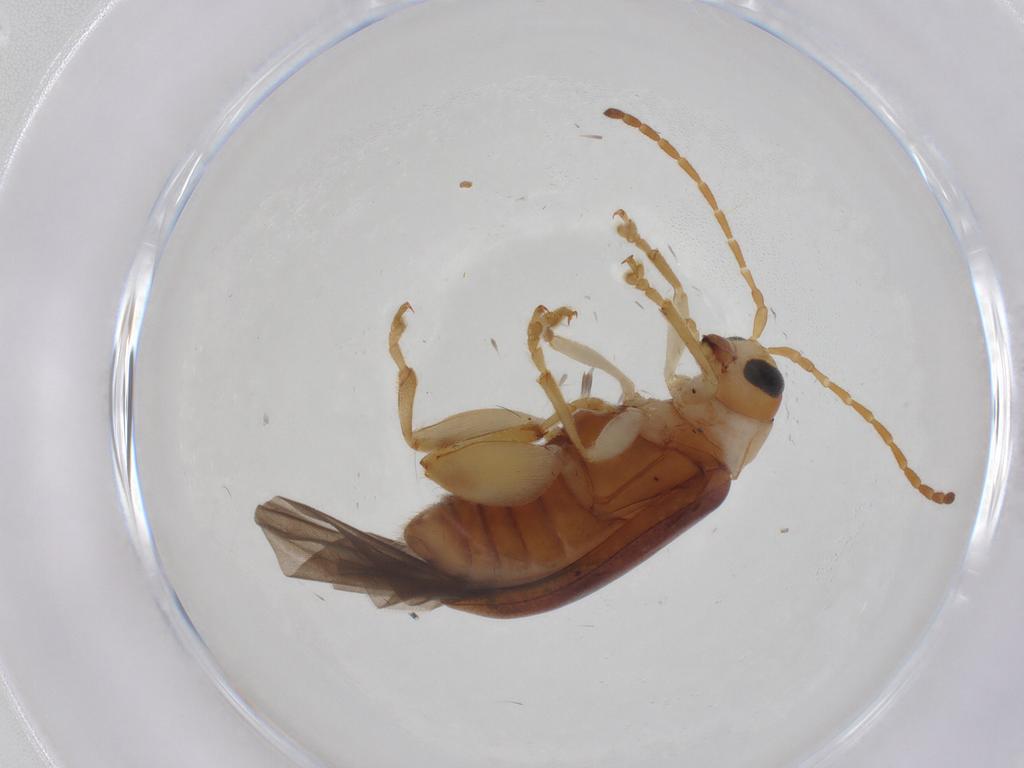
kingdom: Animalia
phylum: Arthropoda
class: Insecta
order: Coleoptera
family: Chrysomelidae
